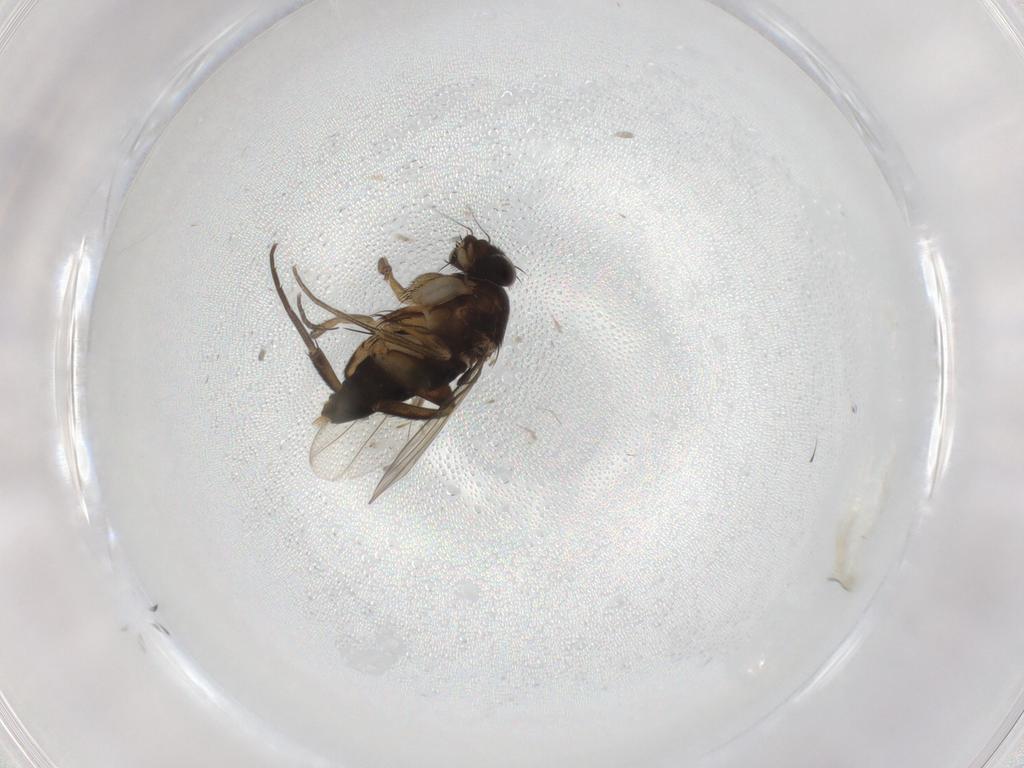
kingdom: Animalia
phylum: Arthropoda
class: Insecta
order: Diptera
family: Phoridae
